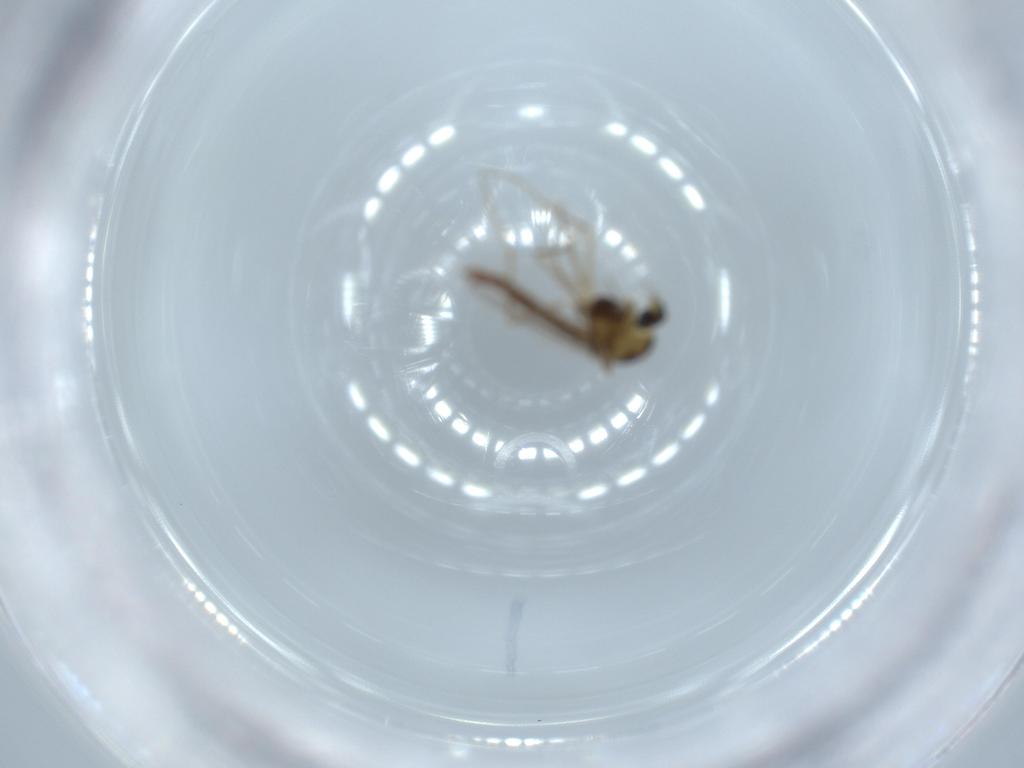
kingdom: Animalia
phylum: Arthropoda
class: Insecta
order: Diptera
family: Chironomidae
